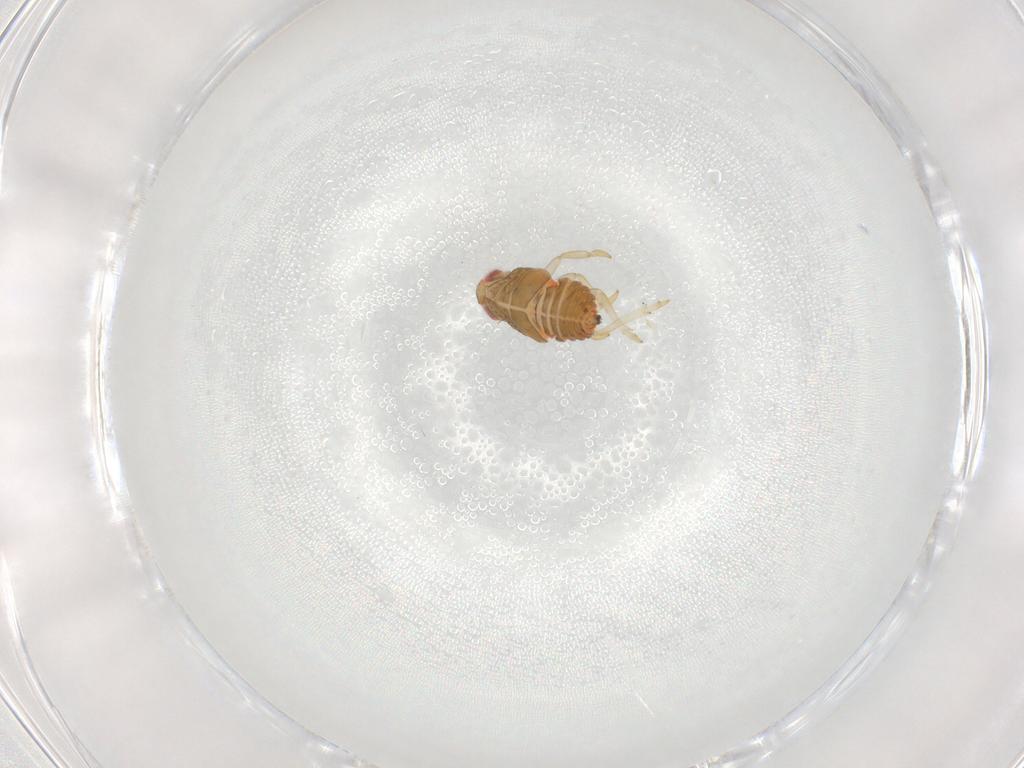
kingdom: Animalia
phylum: Arthropoda
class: Insecta
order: Hemiptera
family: Issidae
